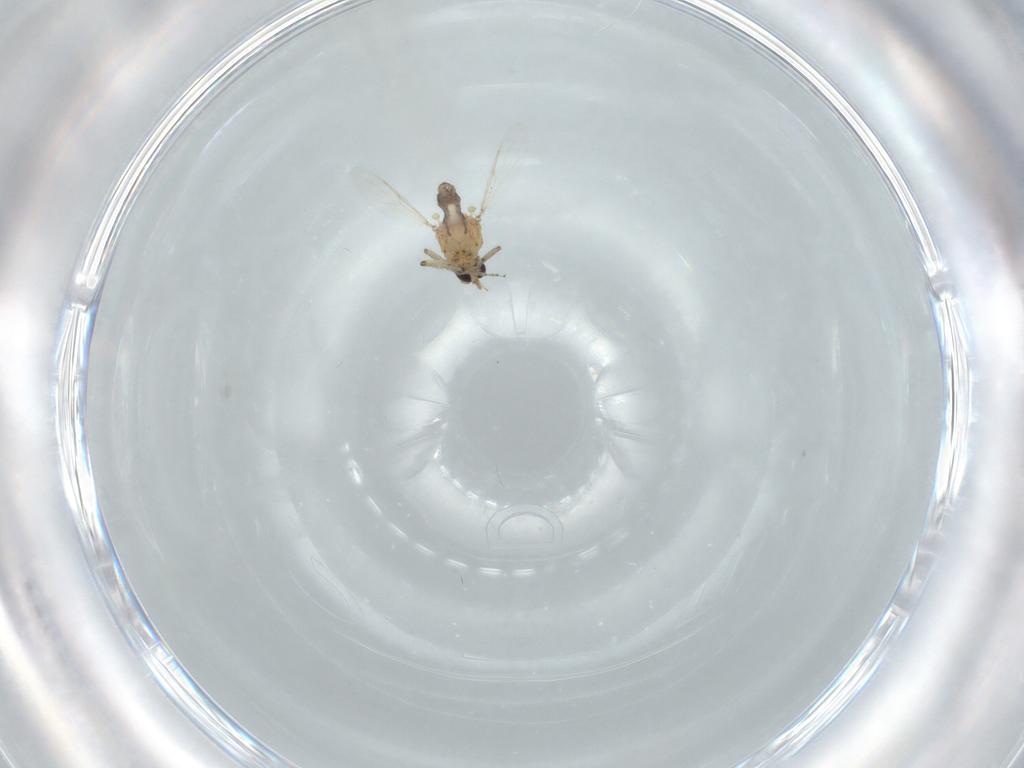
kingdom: Animalia
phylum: Arthropoda
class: Insecta
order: Diptera
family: Ceratopogonidae
